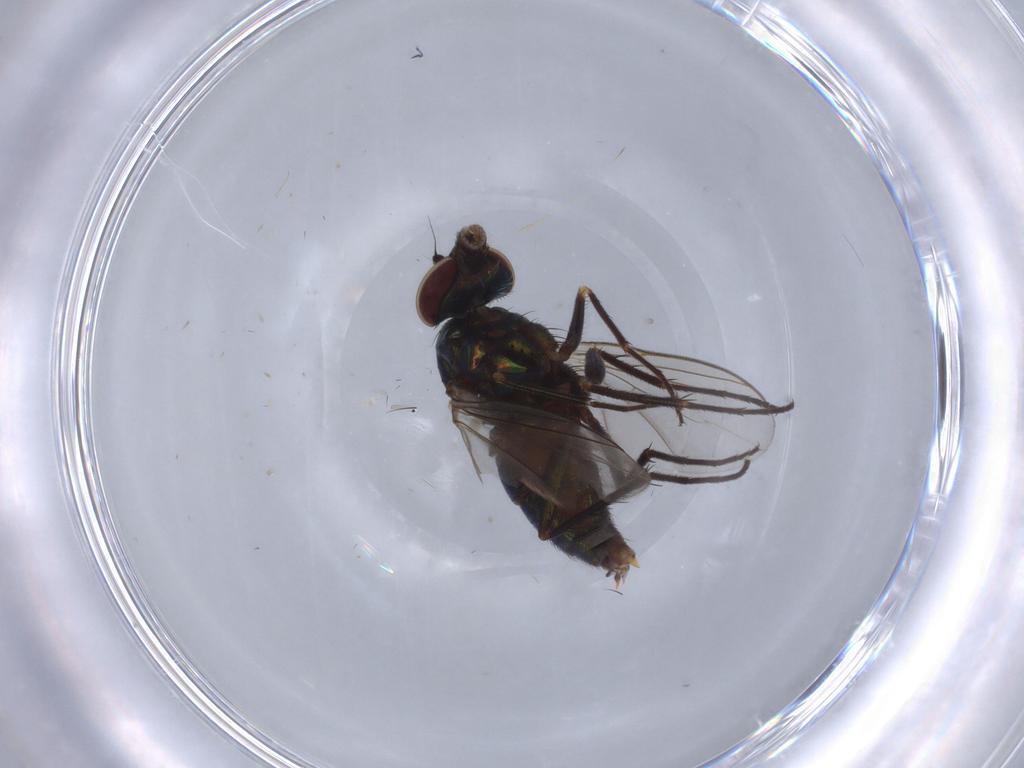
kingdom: Animalia
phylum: Arthropoda
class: Insecta
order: Diptera
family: Dolichopodidae
